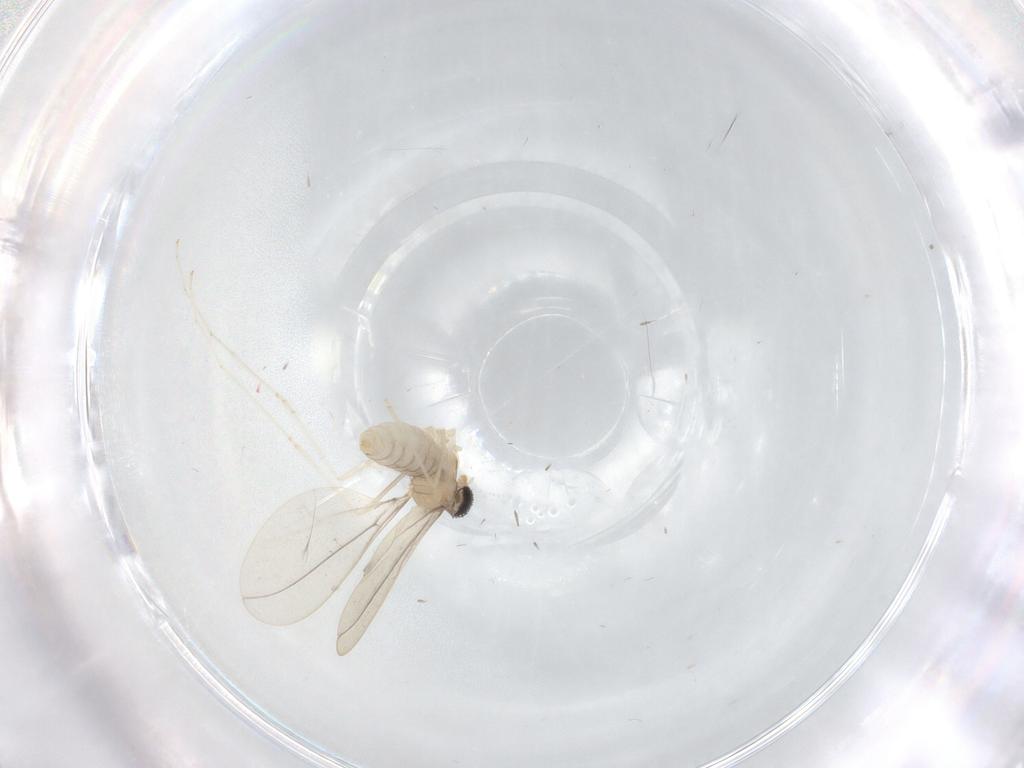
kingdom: Animalia
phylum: Arthropoda
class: Insecta
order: Diptera
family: Cecidomyiidae
